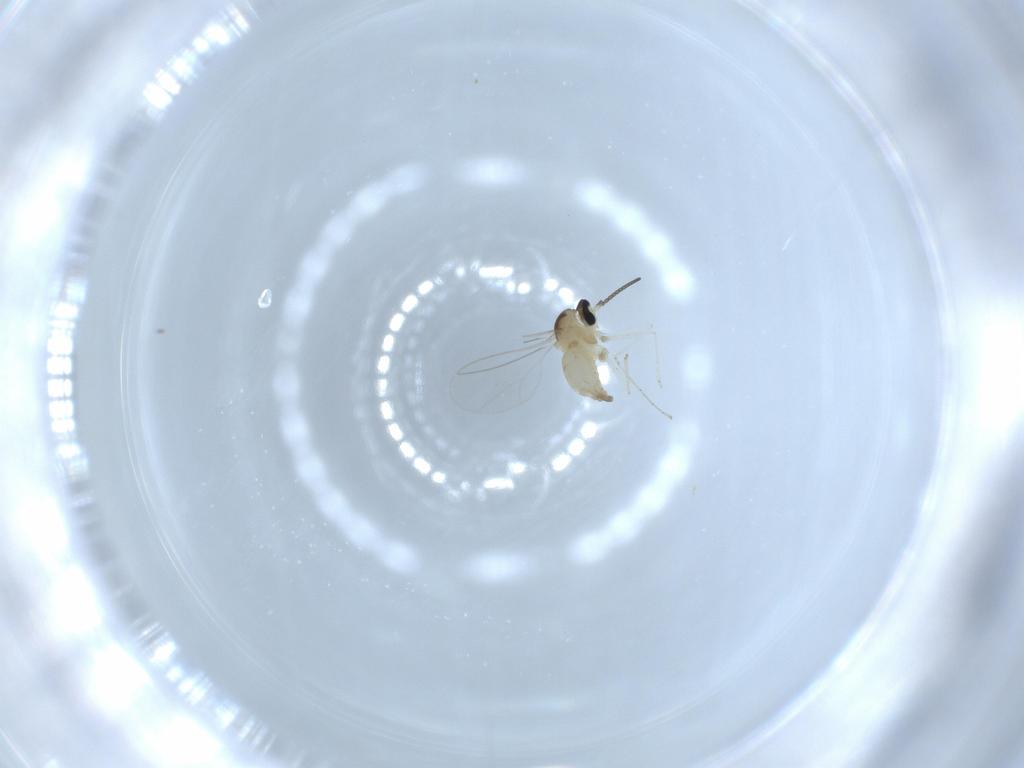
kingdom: Animalia
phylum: Arthropoda
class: Insecta
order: Diptera
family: Cecidomyiidae
